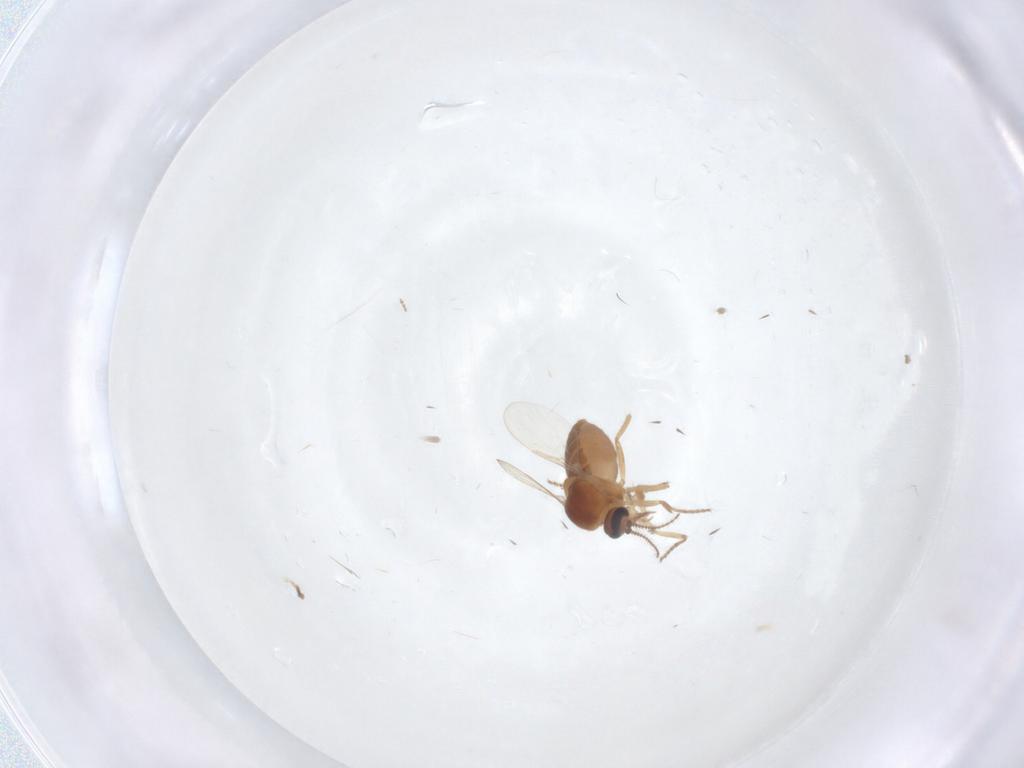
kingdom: Animalia
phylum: Arthropoda
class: Insecta
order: Diptera
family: Ceratopogonidae
